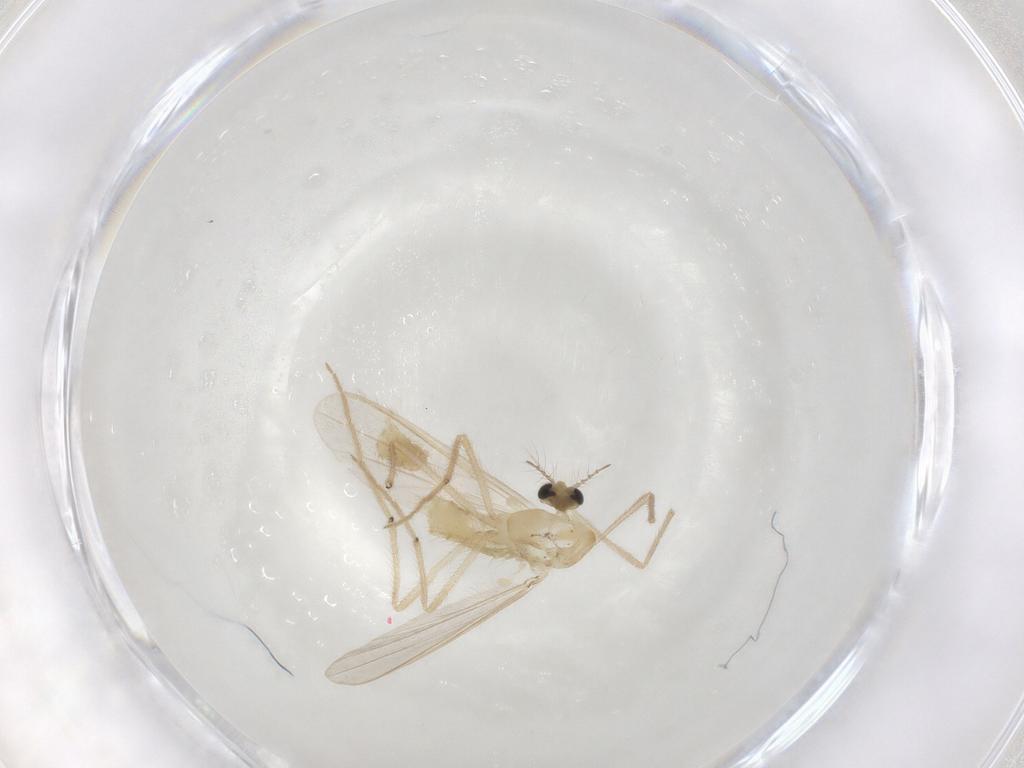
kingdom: Animalia
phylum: Arthropoda
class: Insecta
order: Diptera
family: Chironomidae
